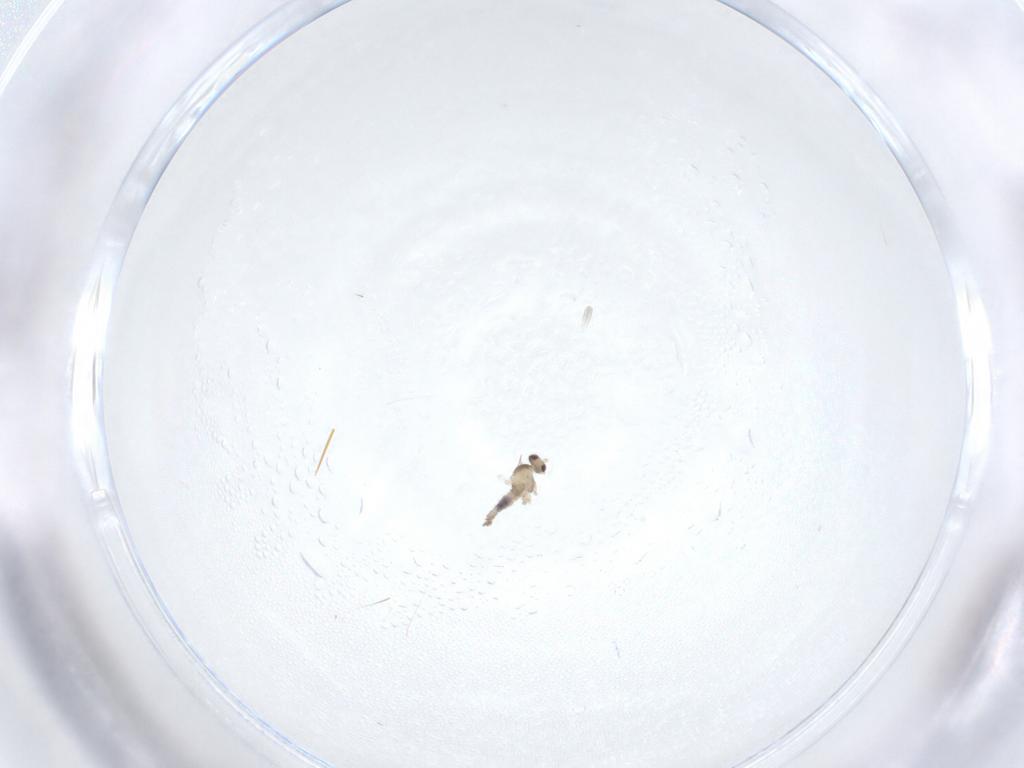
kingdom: Animalia
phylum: Arthropoda
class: Insecta
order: Diptera
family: Cecidomyiidae
